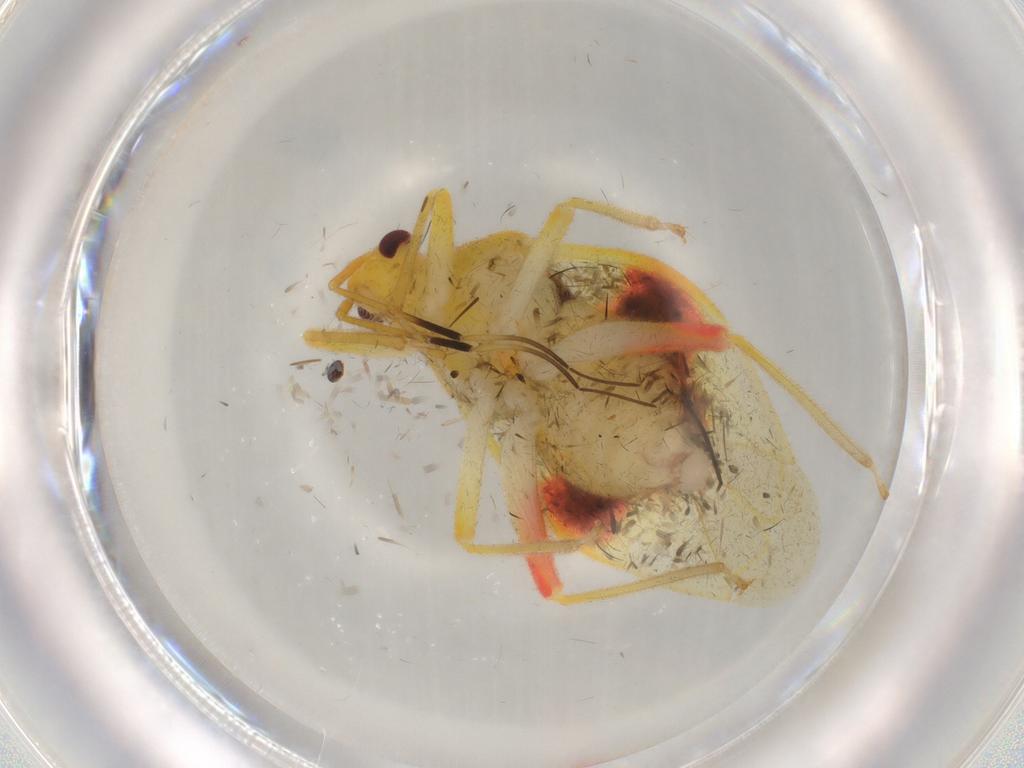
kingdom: Animalia
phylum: Arthropoda
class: Insecta
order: Hemiptera
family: Miridae
